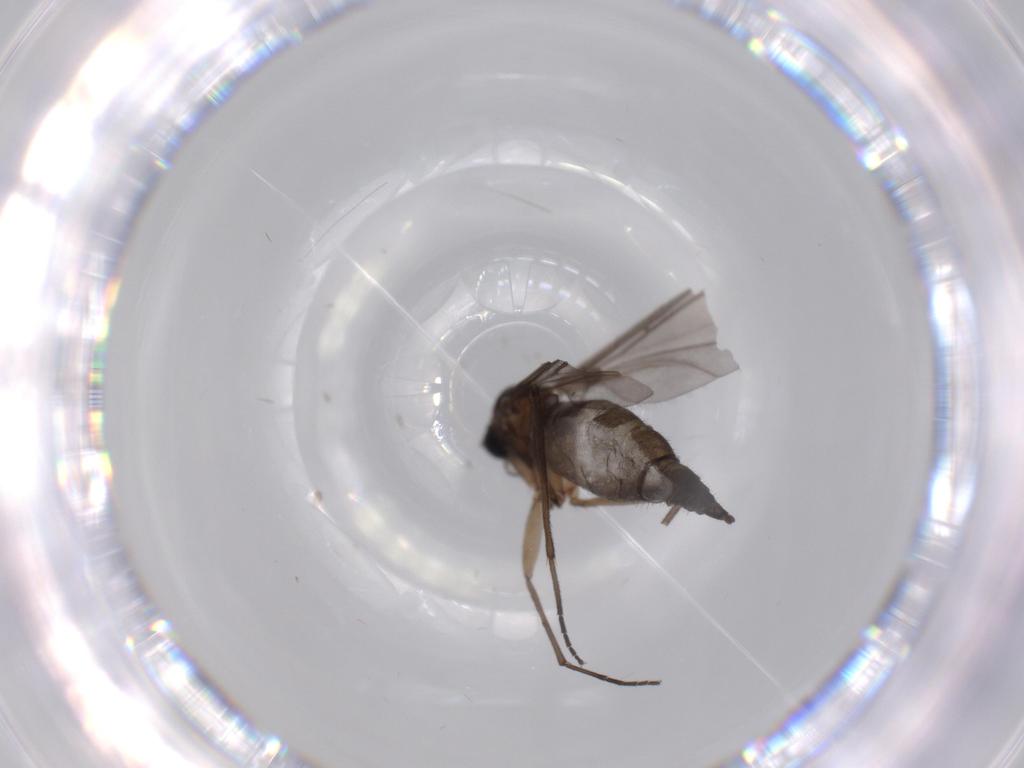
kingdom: Animalia
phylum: Arthropoda
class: Insecta
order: Diptera
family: Sciaridae
